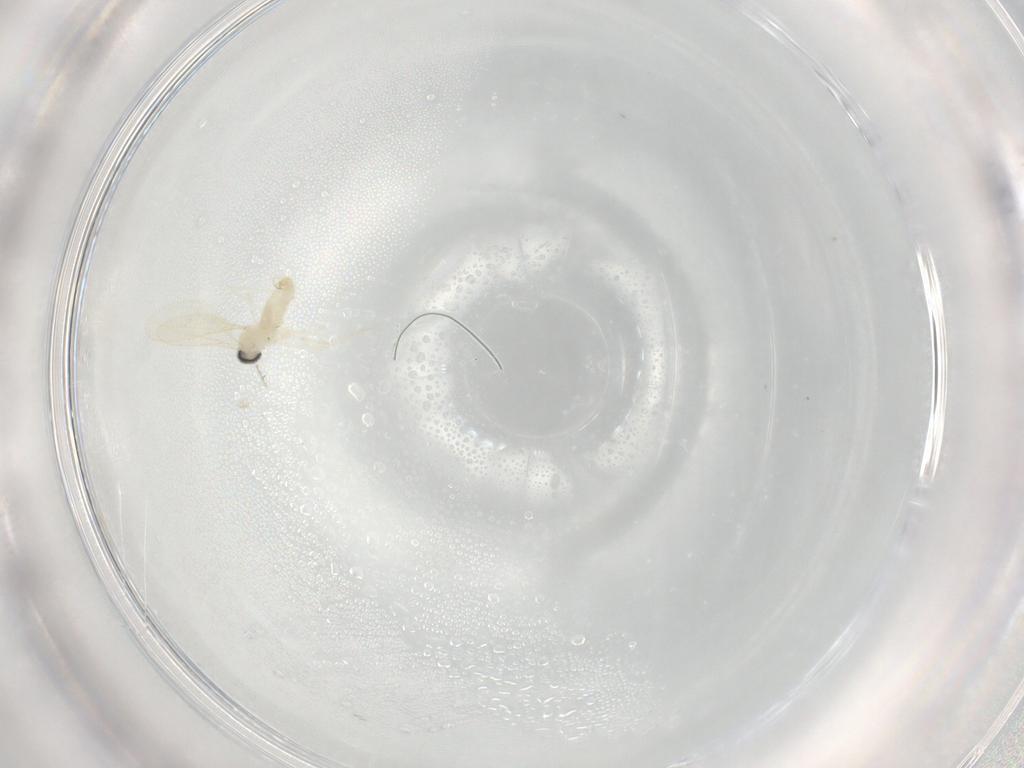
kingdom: Animalia
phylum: Arthropoda
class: Insecta
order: Diptera
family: Cecidomyiidae
